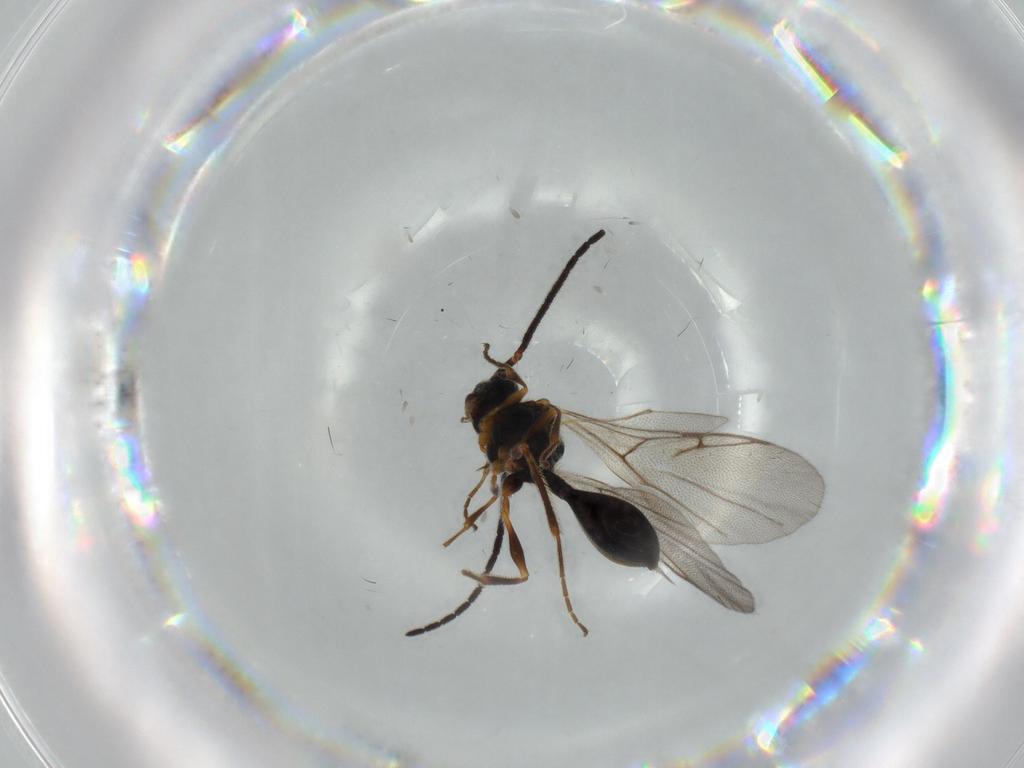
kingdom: Animalia
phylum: Arthropoda
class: Insecta
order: Hymenoptera
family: Diapriidae
